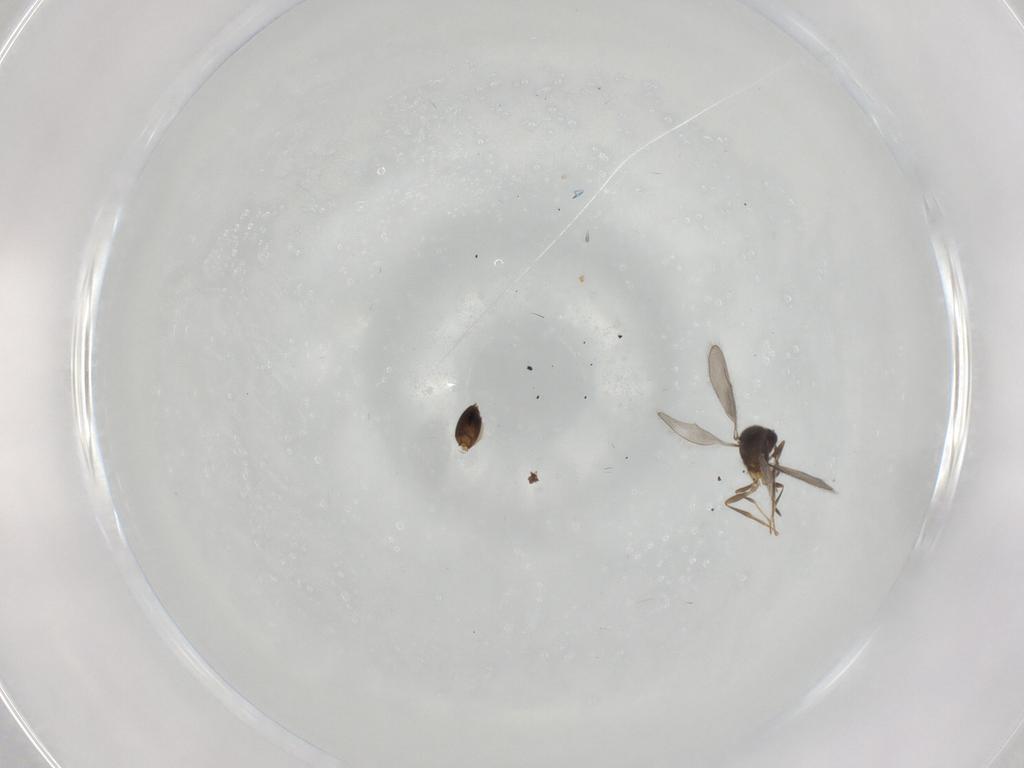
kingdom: Animalia
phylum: Arthropoda
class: Insecta
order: Hymenoptera
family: Ceraphronidae
